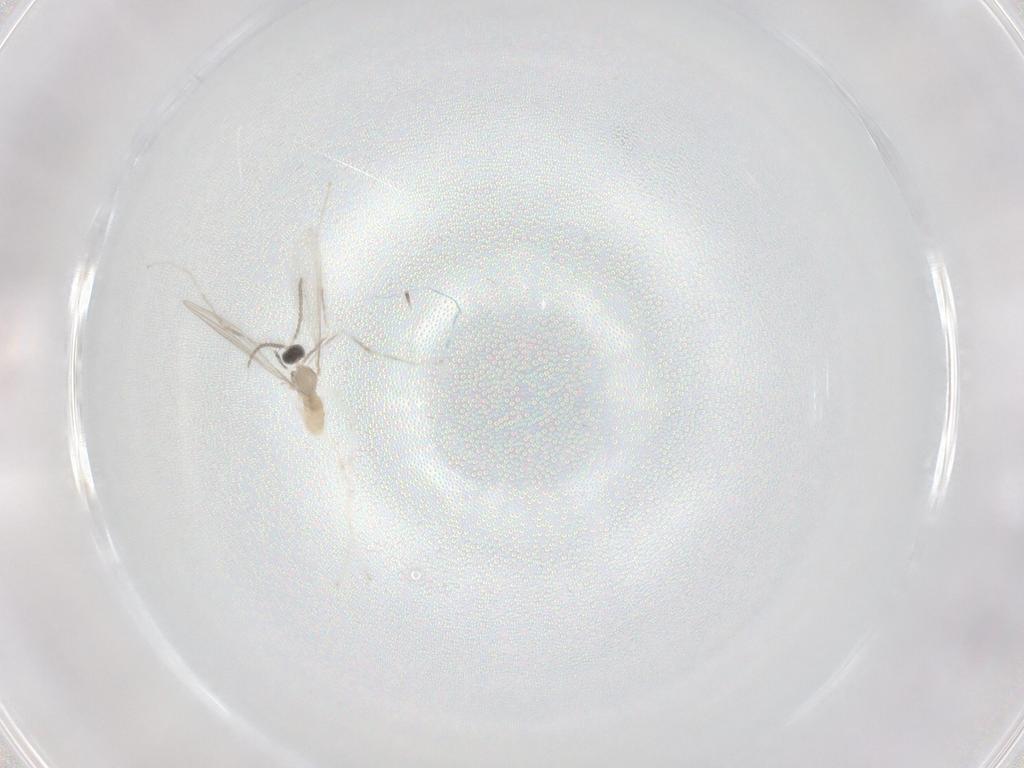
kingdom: Animalia
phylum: Arthropoda
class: Insecta
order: Diptera
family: Cecidomyiidae
